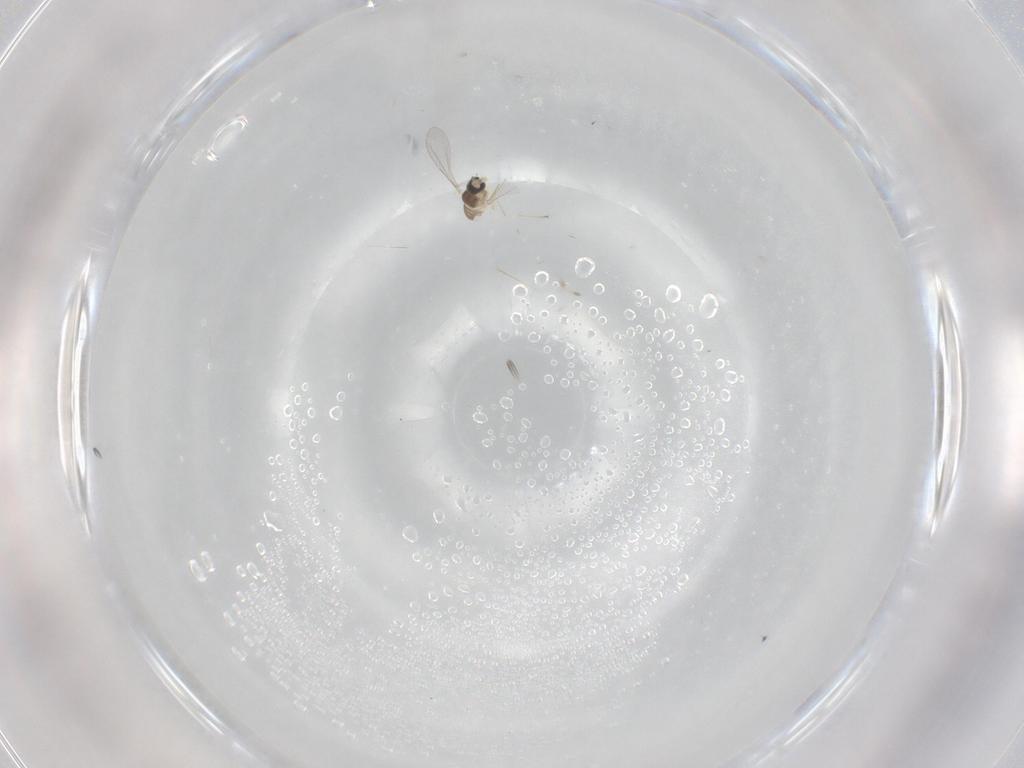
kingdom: Animalia
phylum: Arthropoda
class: Insecta
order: Diptera
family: Cecidomyiidae
